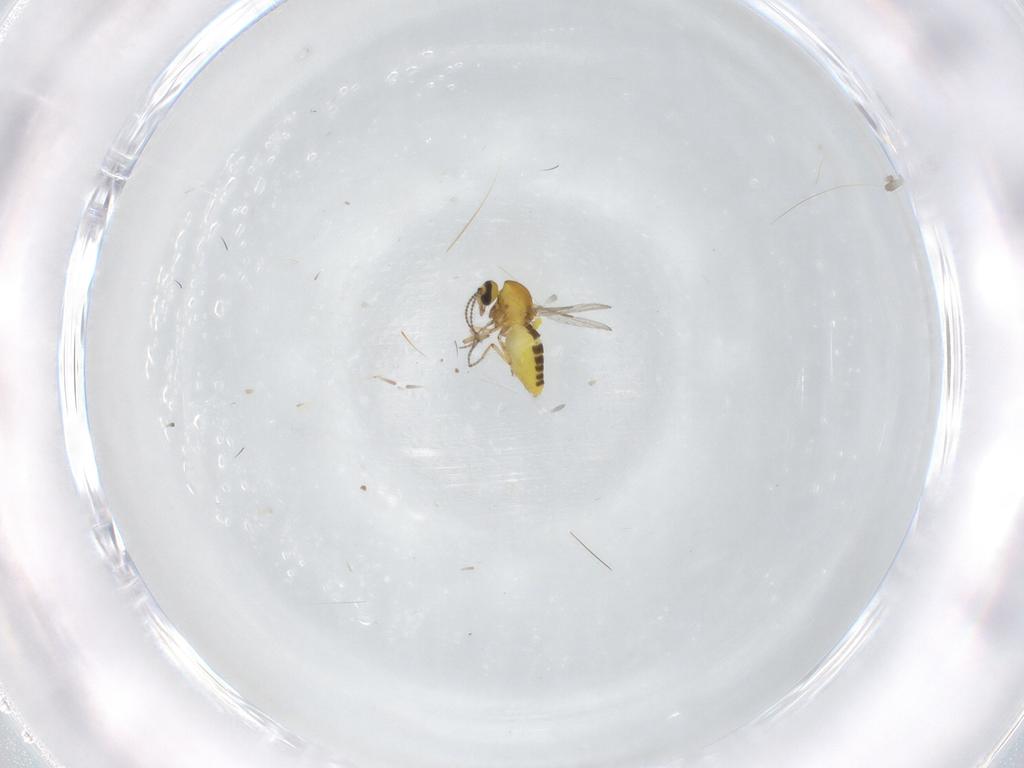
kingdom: Animalia
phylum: Arthropoda
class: Insecta
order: Diptera
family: Ceratopogonidae
